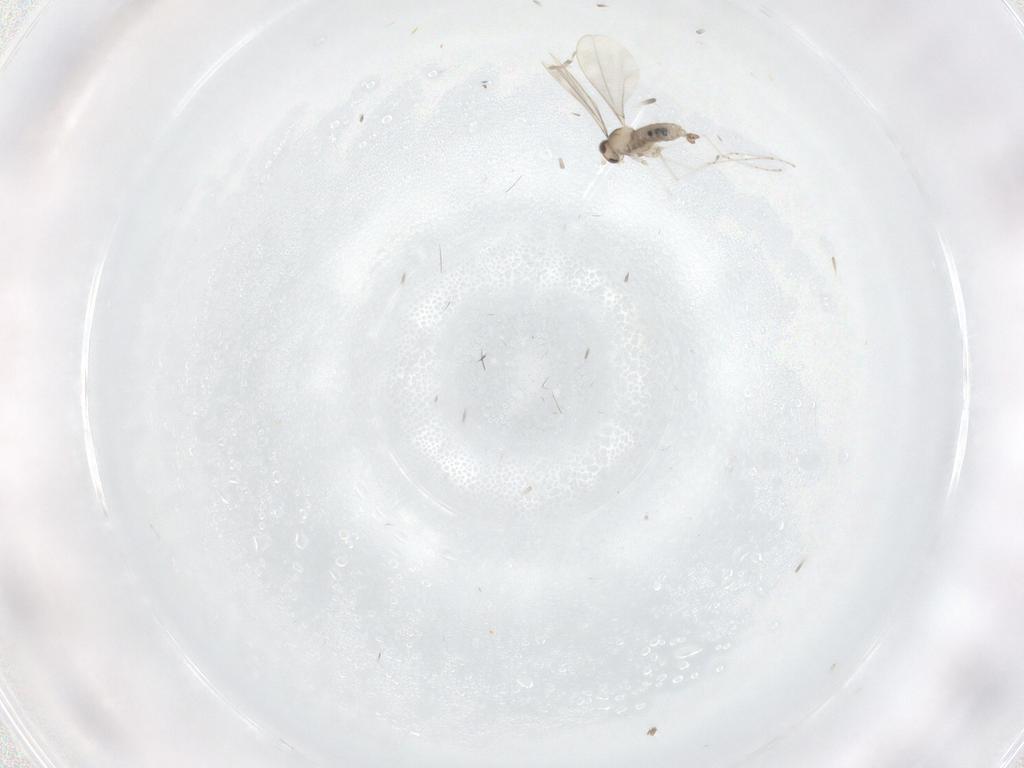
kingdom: Animalia
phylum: Arthropoda
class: Insecta
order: Diptera
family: Cecidomyiidae
